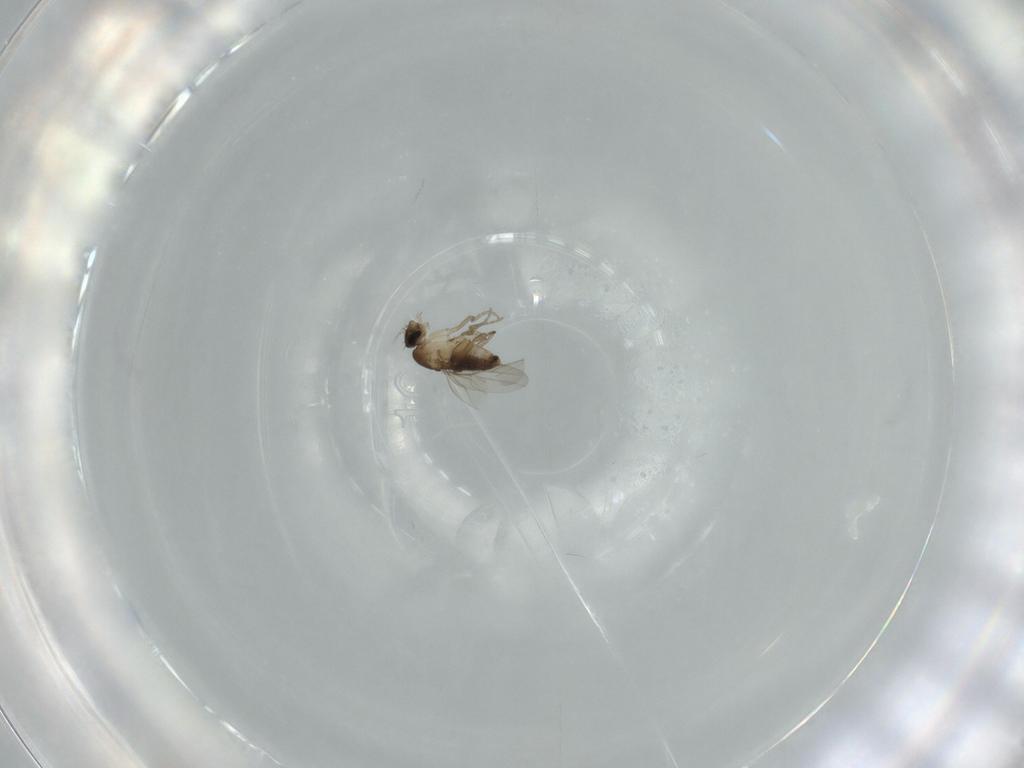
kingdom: Animalia
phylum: Arthropoda
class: Insecta
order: Diptera
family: Phoridae
